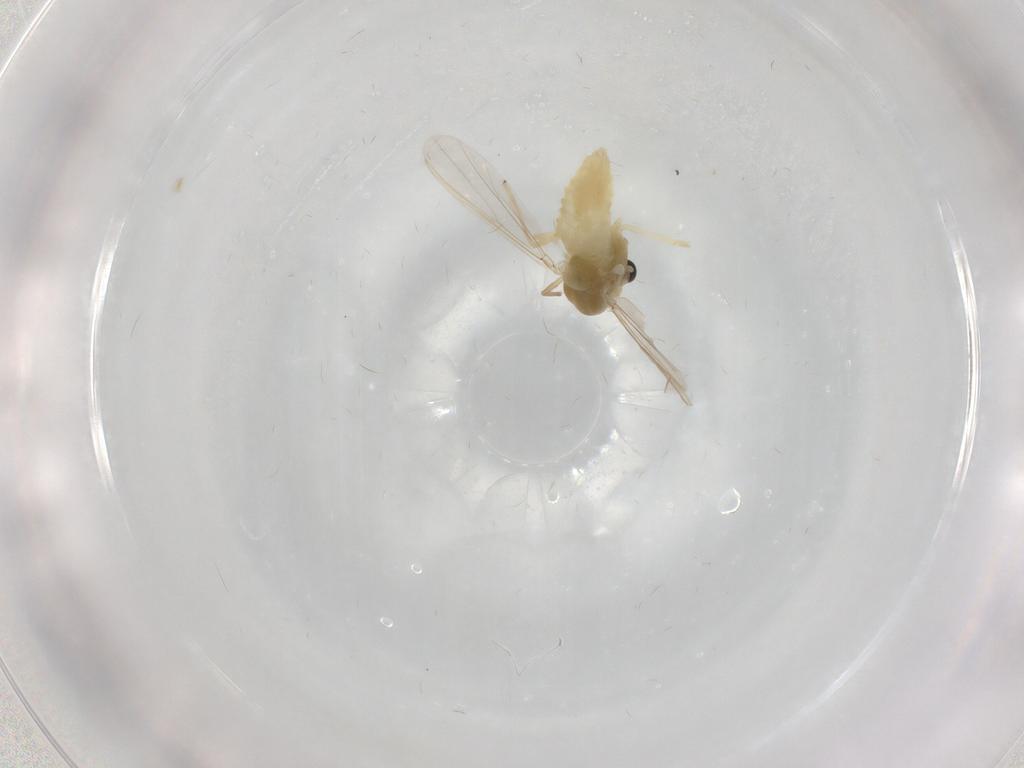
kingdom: Animalia
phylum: Arthropoda
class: Insecta
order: Diptera
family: Chironomidae
